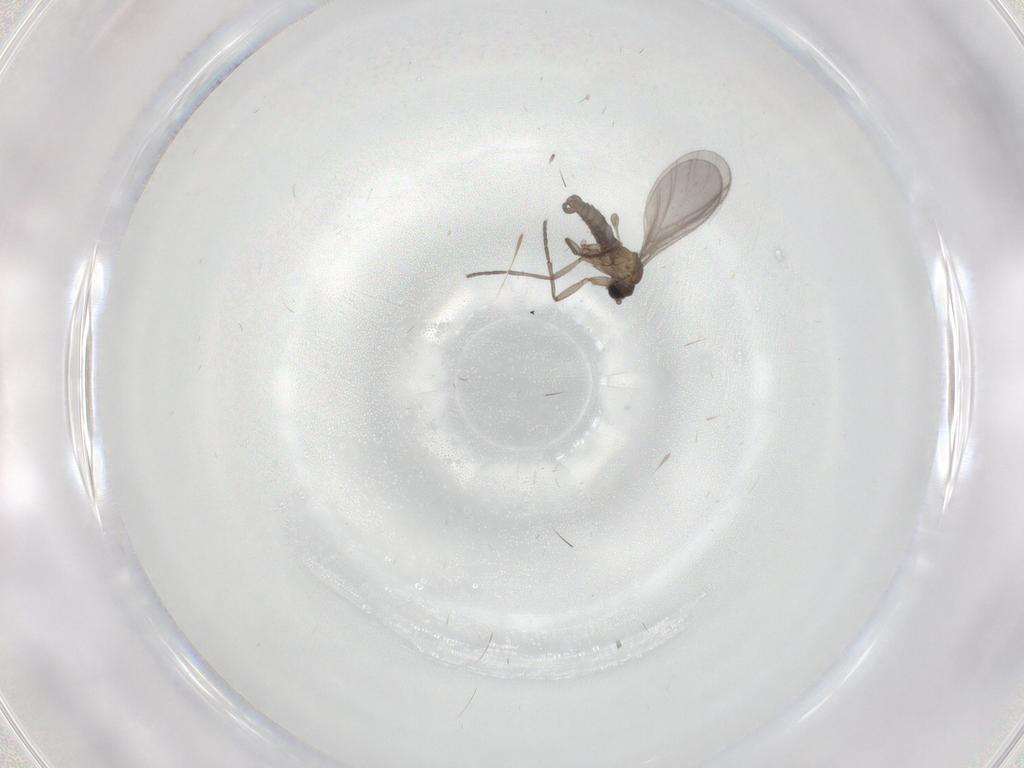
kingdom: Animalia
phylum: Arthropoda
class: Insecta
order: Diptera
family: Sciaridae
